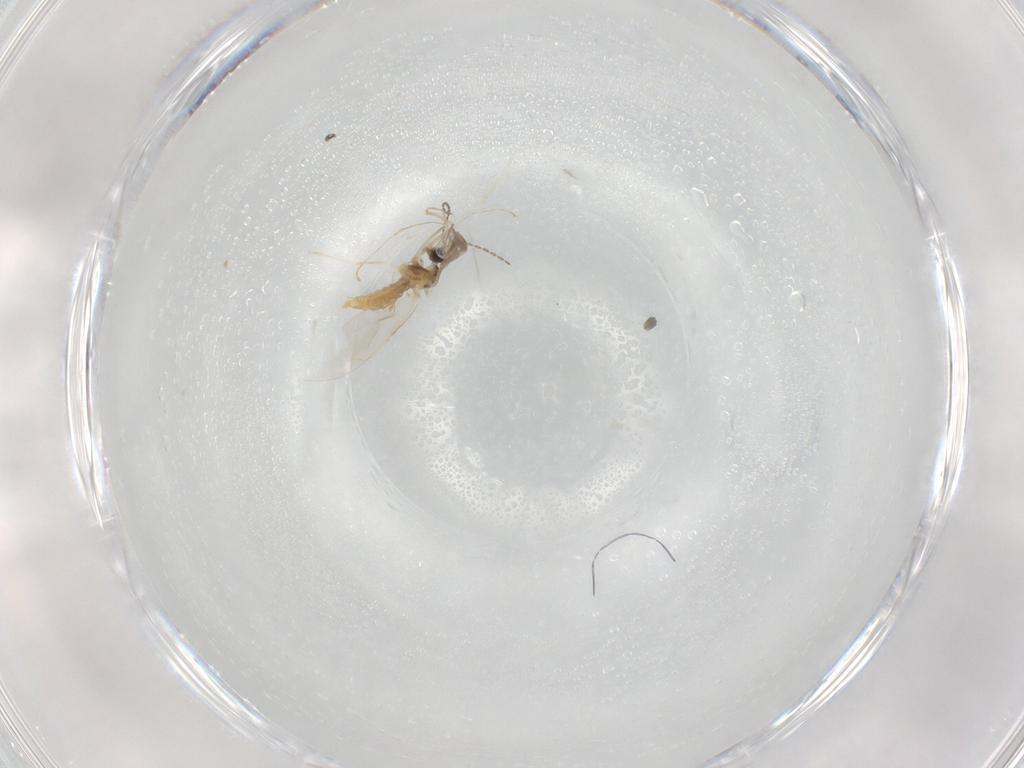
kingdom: Animalia
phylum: Arthropoda
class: Insecta
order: Diptera
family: Cecidomyiidae
